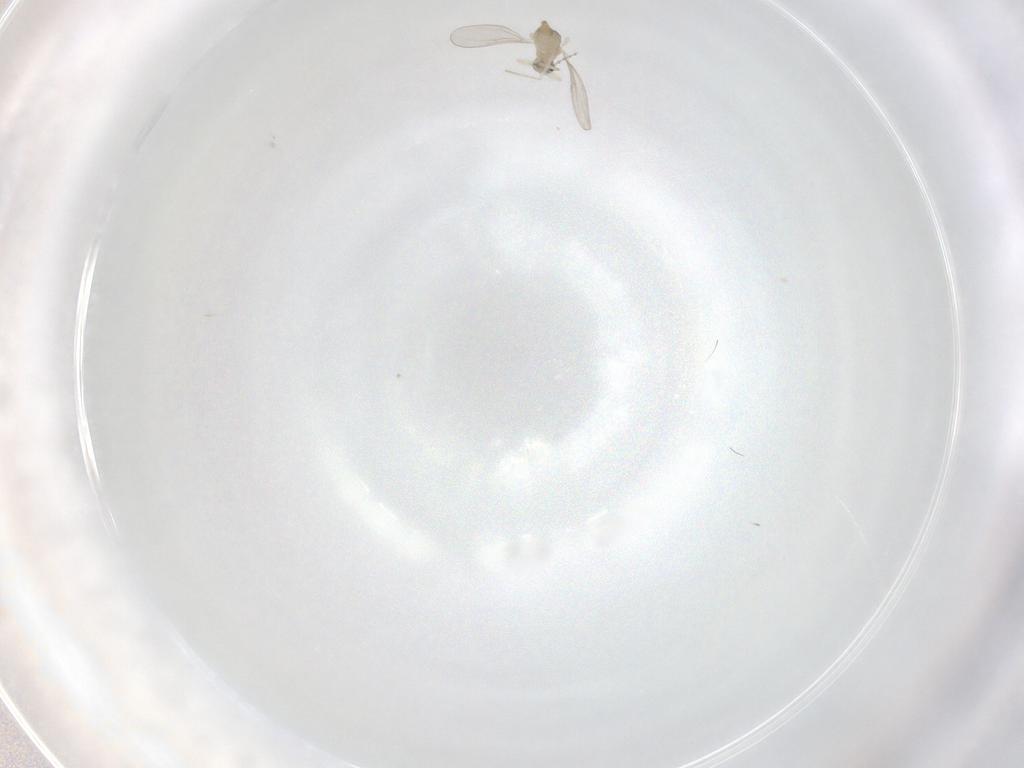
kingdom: Animalia
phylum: Arthropoda
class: Insecta
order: Diptera
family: Cecidomyiidae
